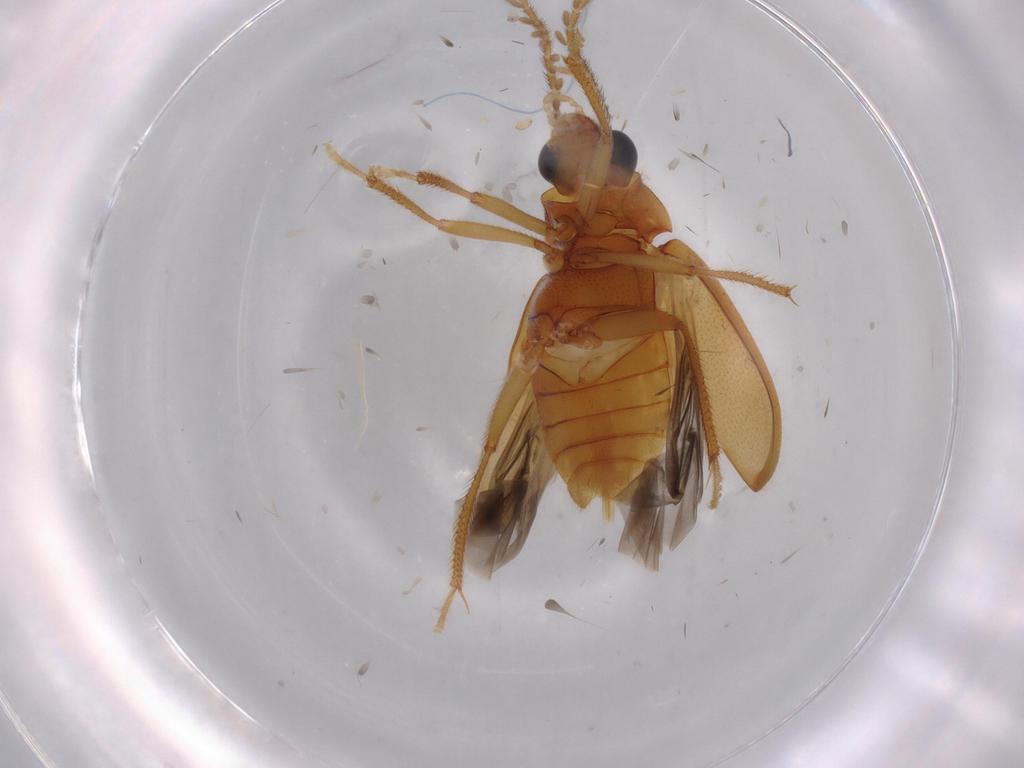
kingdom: Animalia
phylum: Arthropoda
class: Insecta
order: Coleoptera
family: Ptilodactylidae
